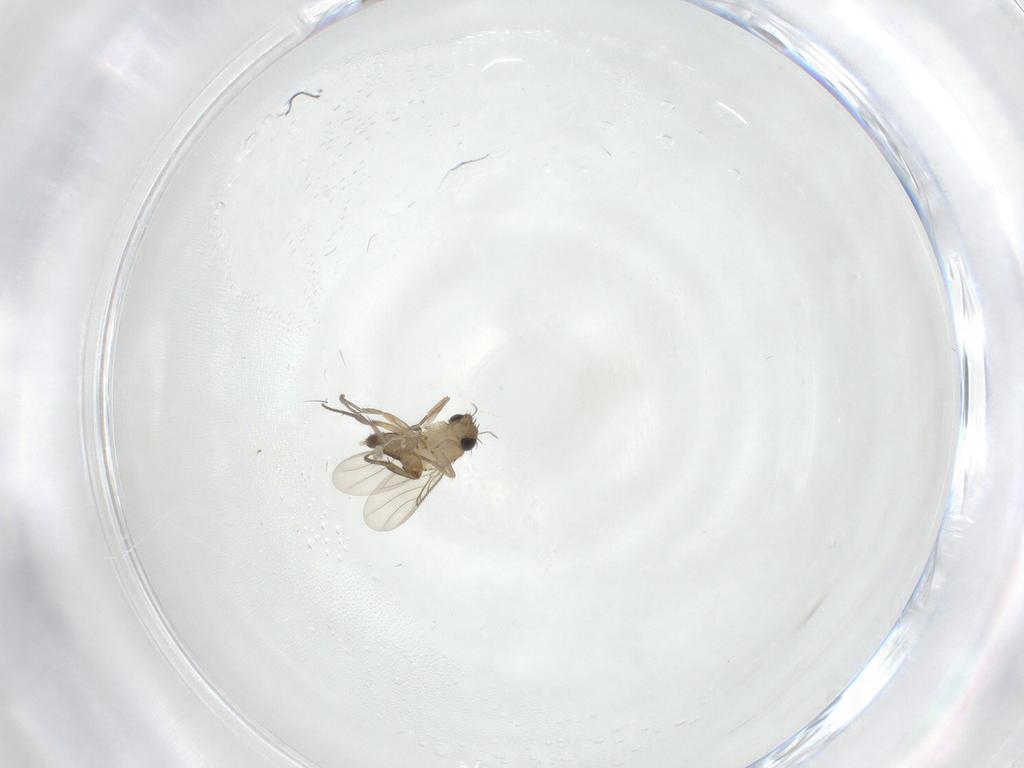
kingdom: Animalia
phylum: Arthropoda
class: Insecta
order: Diptera
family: Phoridae
